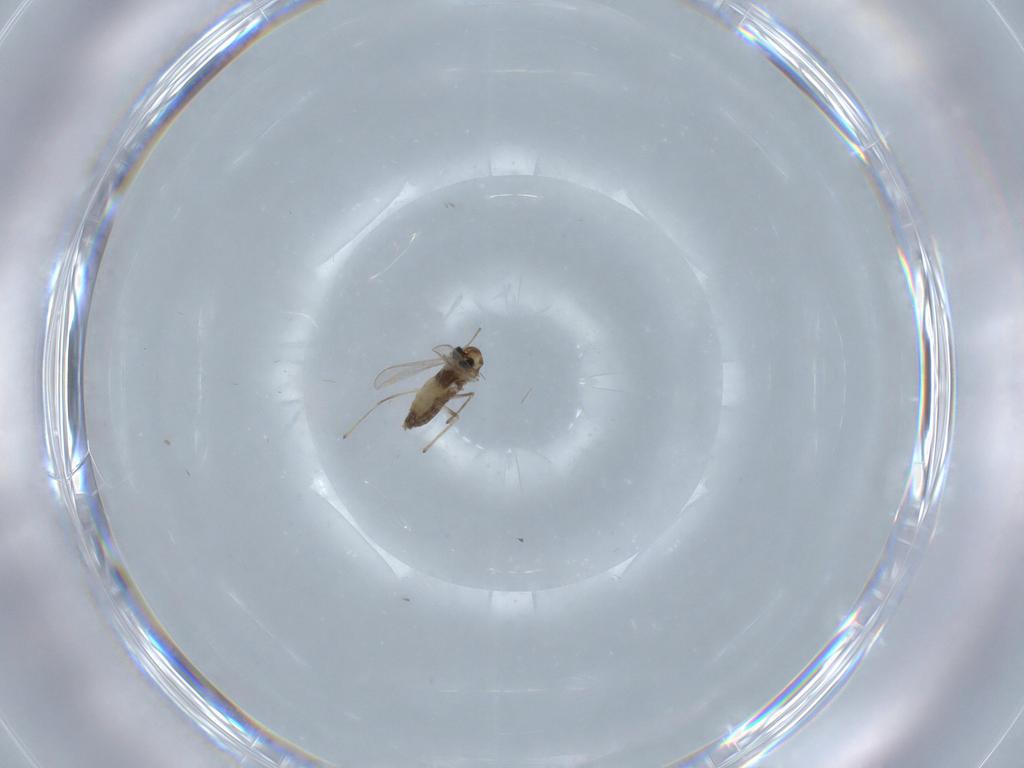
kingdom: Animalia
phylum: Arthropoda
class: Insecta
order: Diptera
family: Chironomidae
